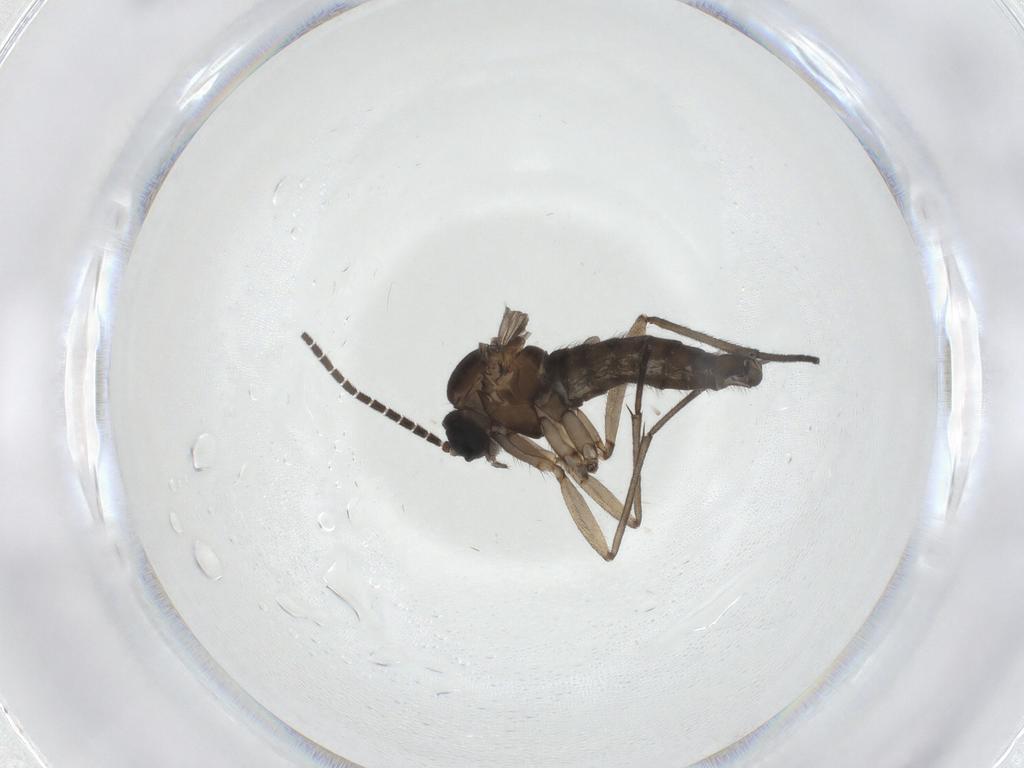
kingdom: Animalia
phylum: Arthropoda
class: Insecta
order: Diptera
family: Sciaridae
